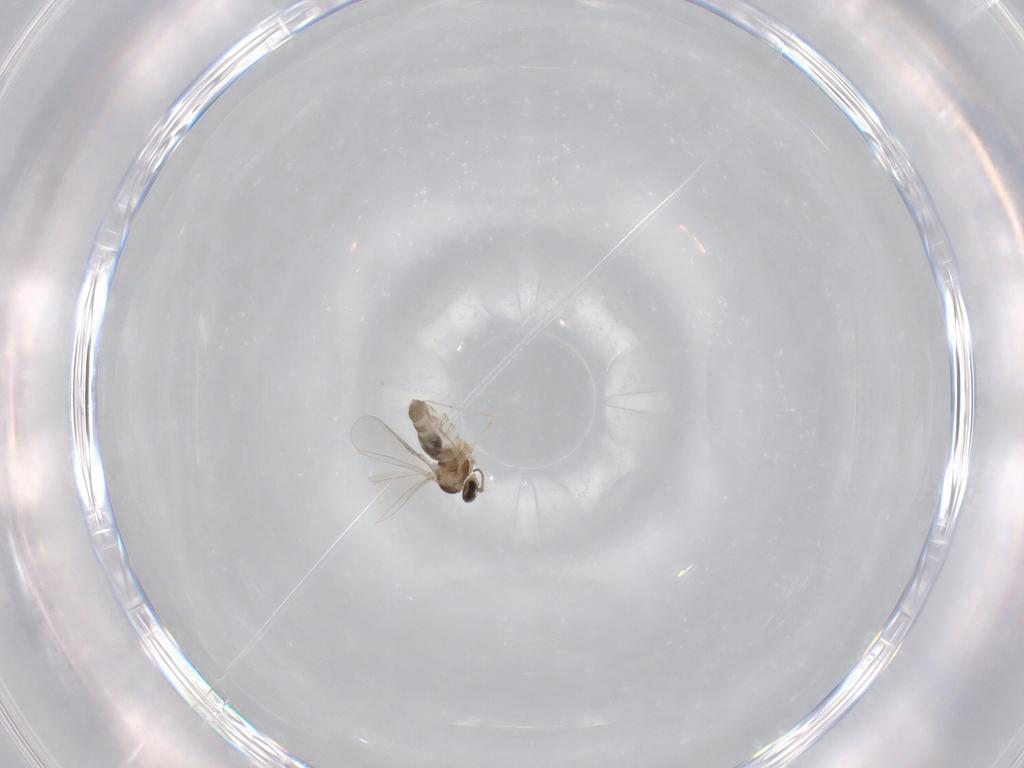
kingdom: Animalia
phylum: Arthropoda
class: Insecta
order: Diptera
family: Cecidomyiidae
